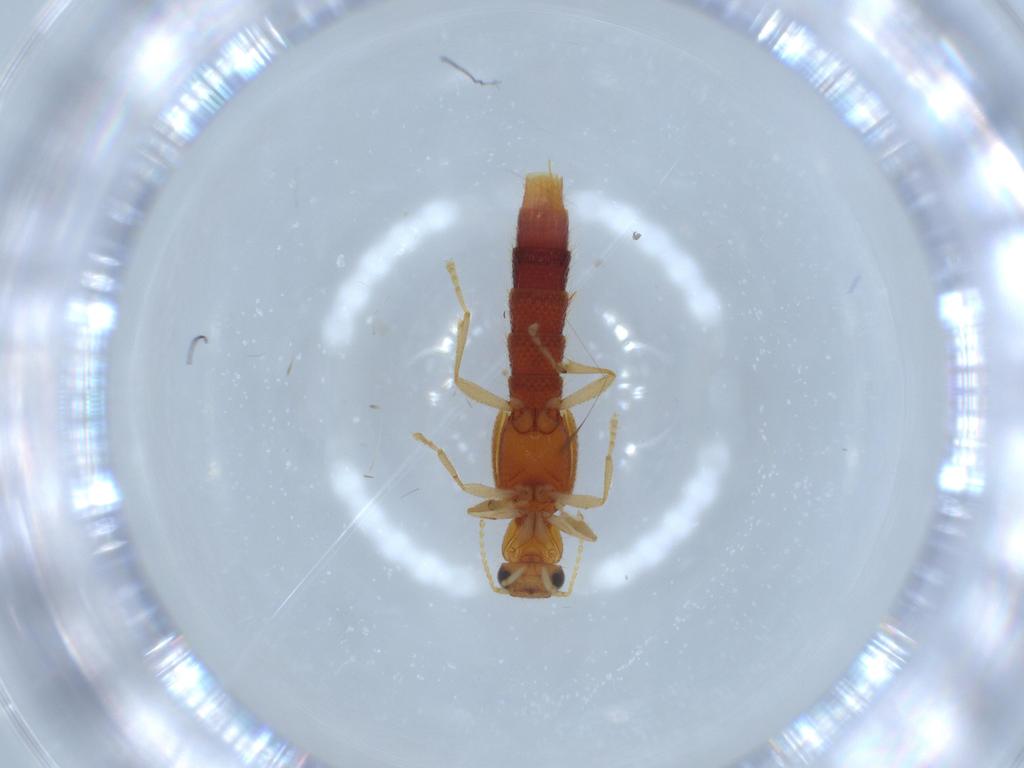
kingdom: Animalia
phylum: Arthropoda
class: Insecta
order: Coleoptera
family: Staphylinidae
